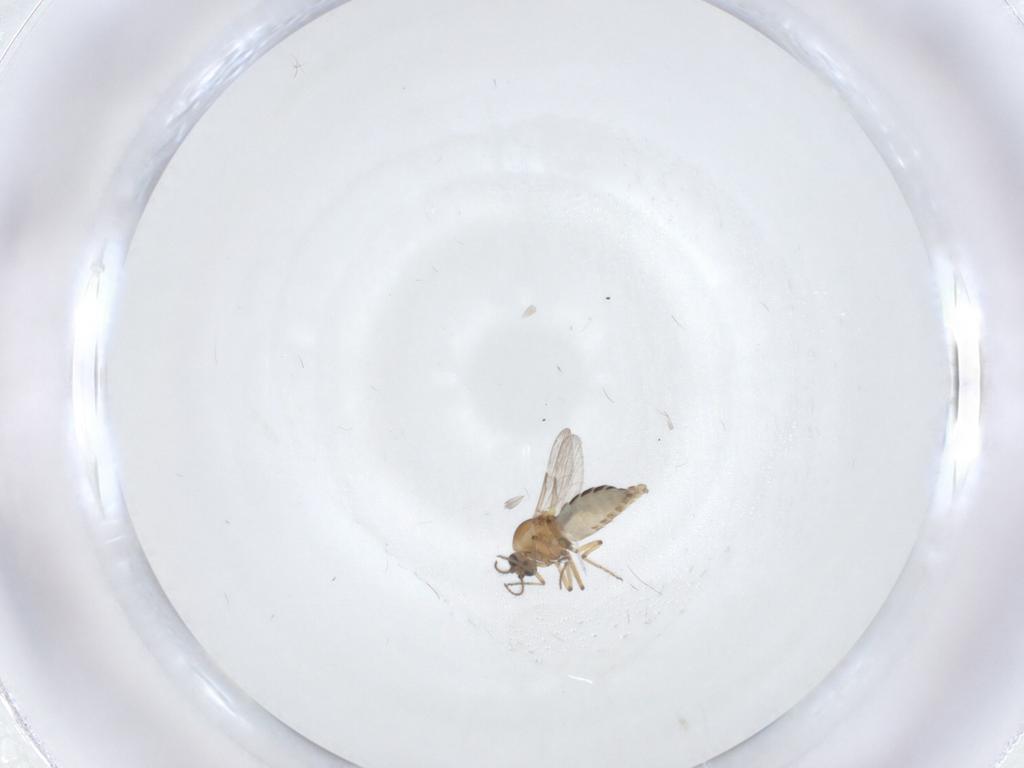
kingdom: Animalia
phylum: Arthropoda
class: Insecta
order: Diptera
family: Ceratopogonidae
